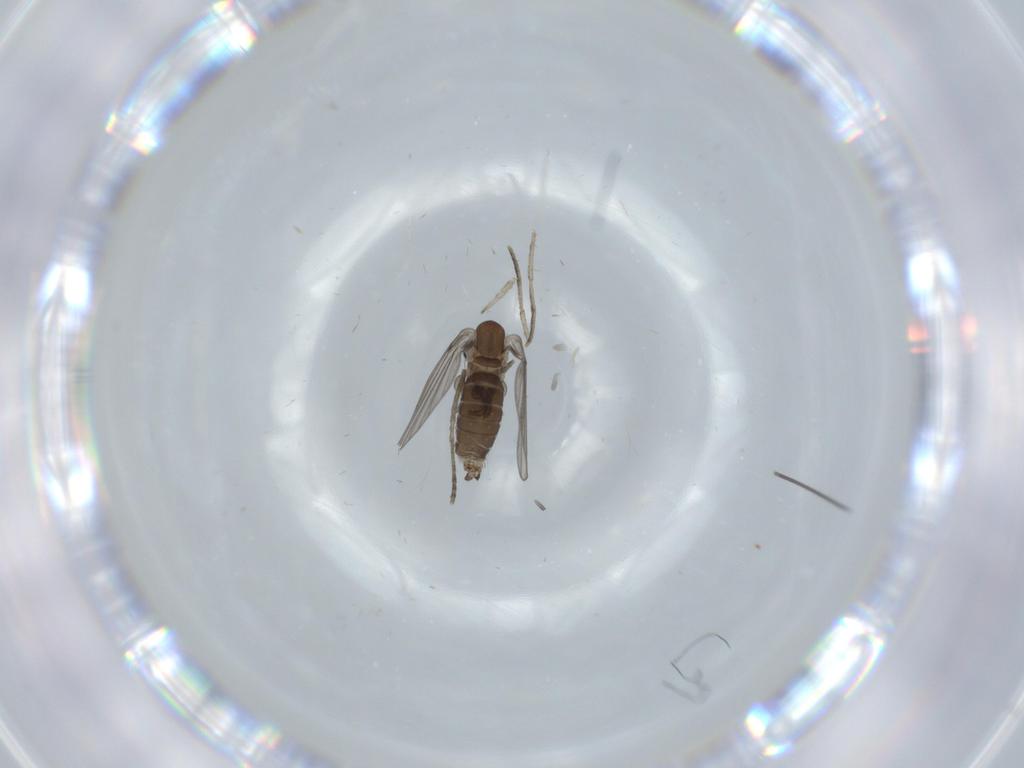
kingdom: Animalia
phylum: Arthropoda
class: Insecta
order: Diptera
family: Psychodidae
